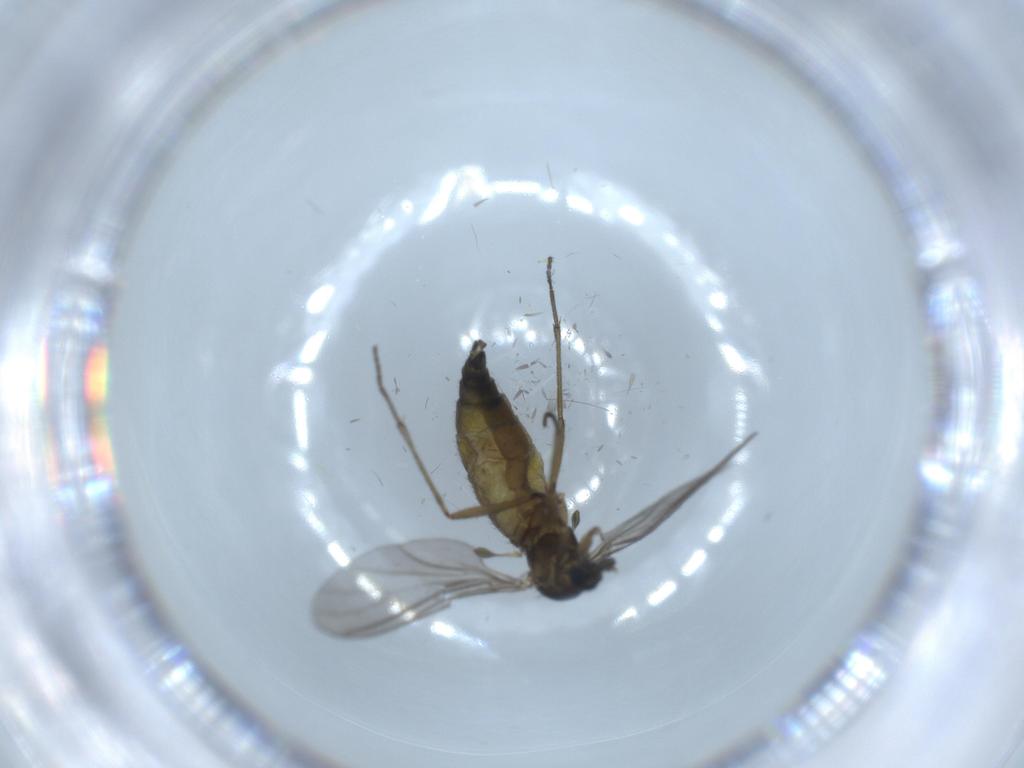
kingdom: Animalia
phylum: Arthropoda
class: Insecta
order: Diptera
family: Sciaridae
